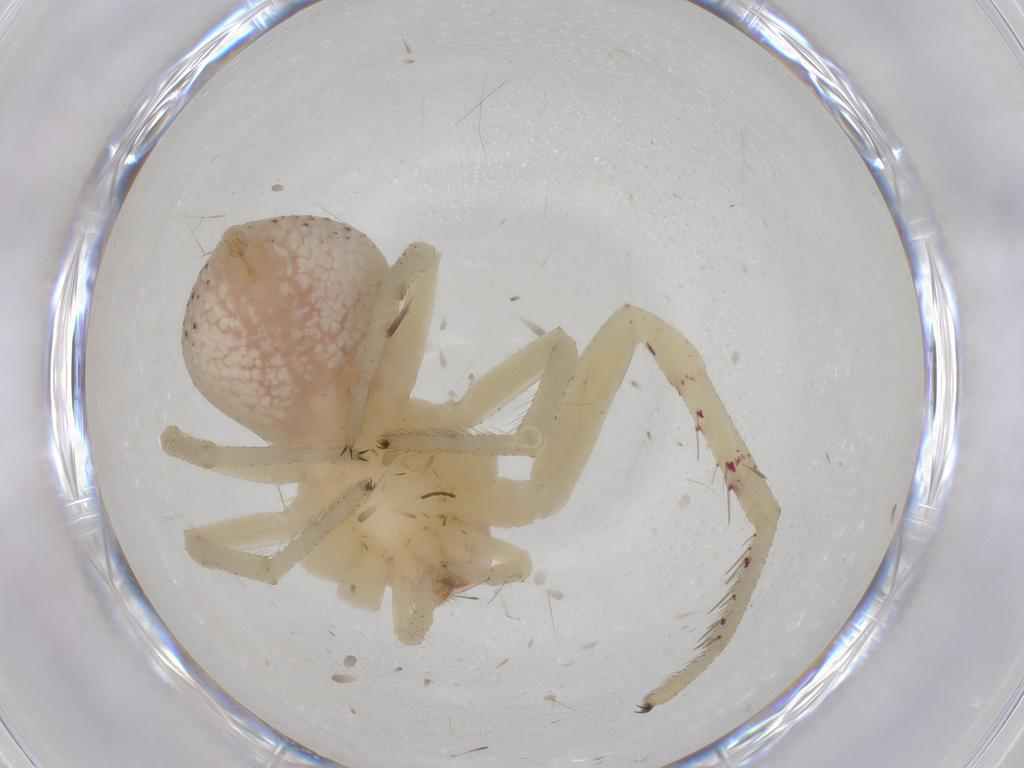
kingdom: Animalia
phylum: Arthropoda
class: Arachnida
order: Araneae
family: Thomisidae
